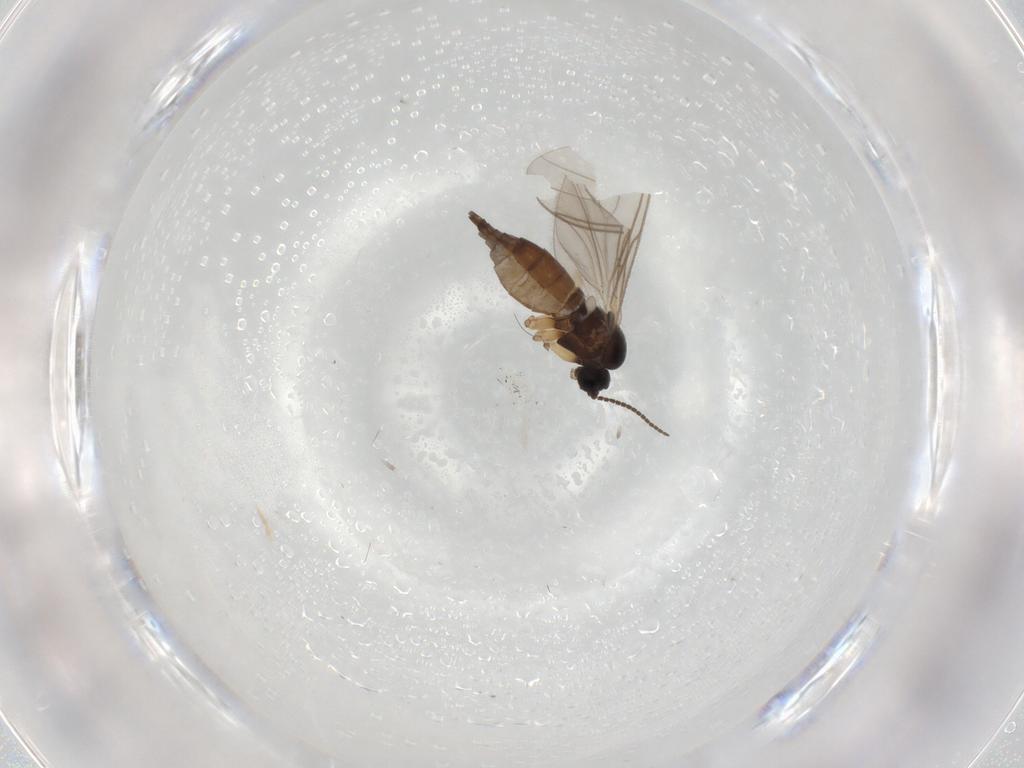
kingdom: Animalia
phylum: Arthropoda
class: Insecta
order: Diptera
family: Sciaridae
